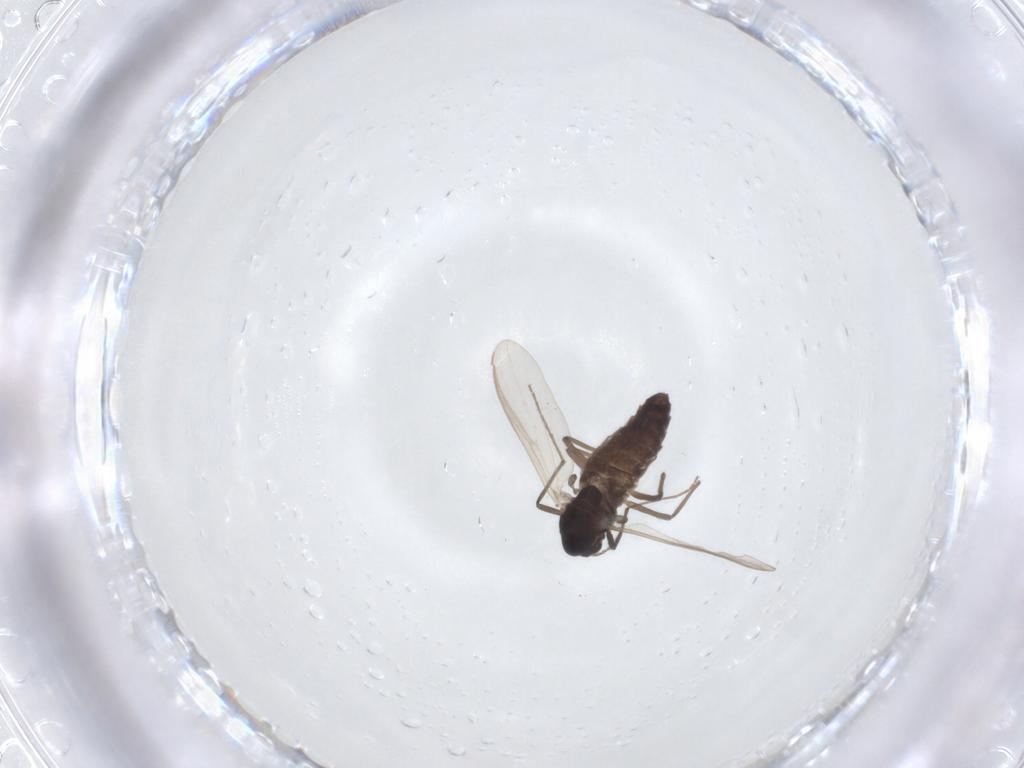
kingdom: Animalia
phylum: Arthropoda
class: Insecta
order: Diptera
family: Chironomidae
